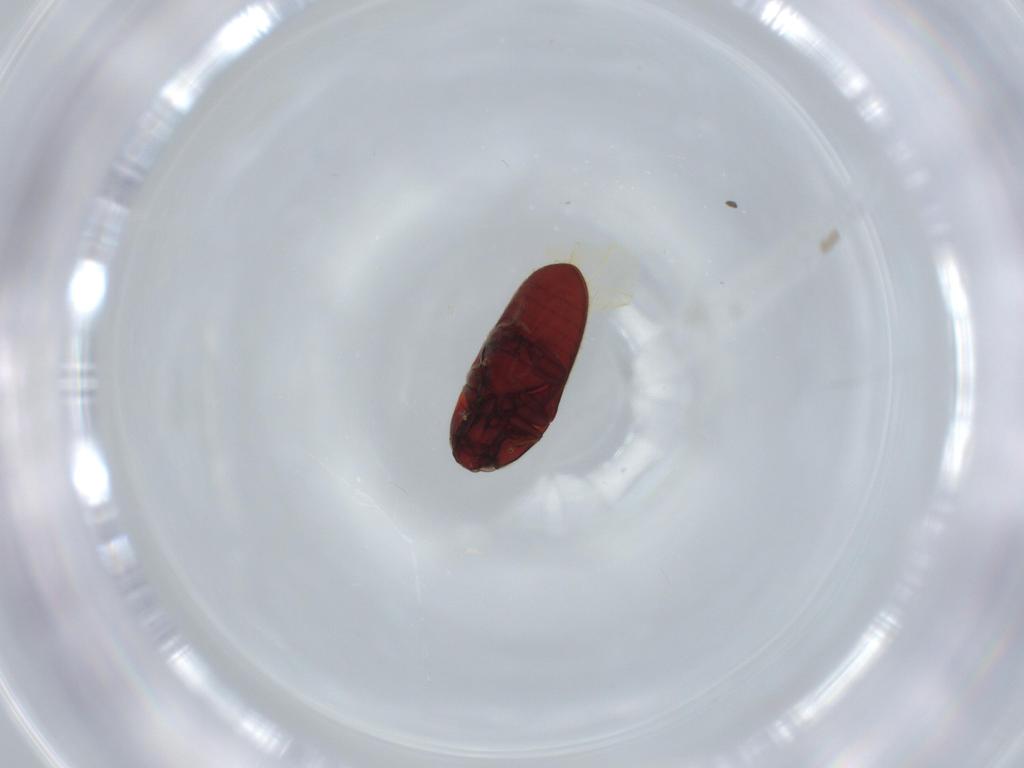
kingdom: Animalia
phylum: Arthropoda
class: Insecta
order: Coleoptera
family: Throscidae
